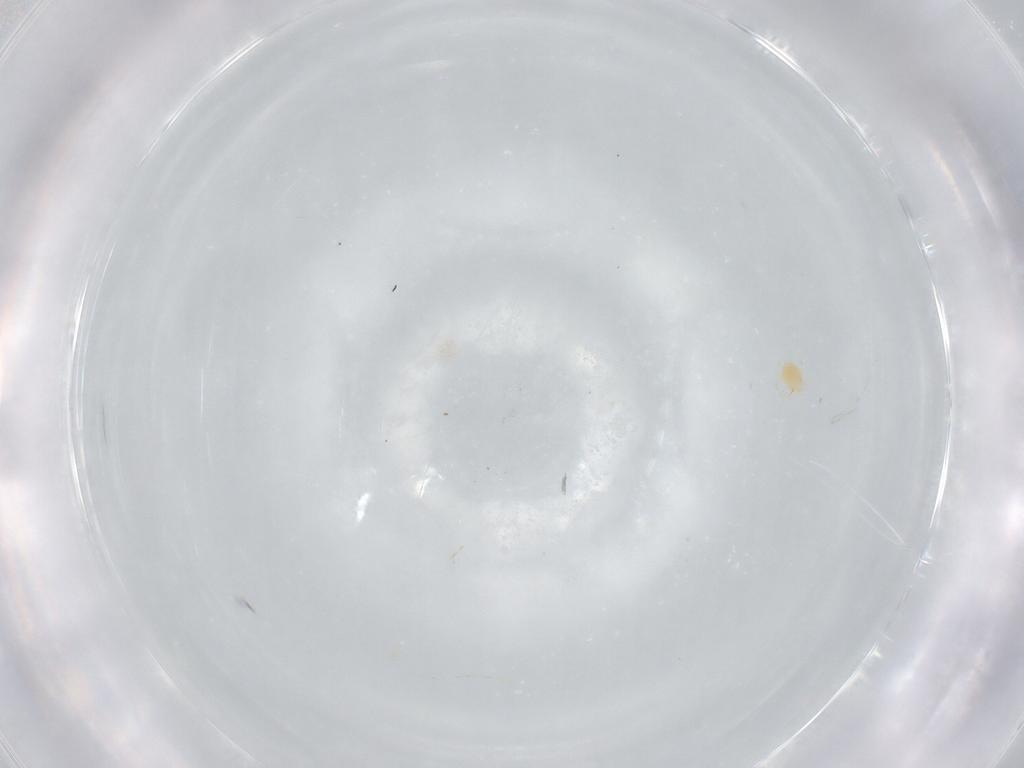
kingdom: Animalia
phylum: Arthropoda
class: Arachnida
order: Trombidiformes
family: Torrenticolidae
